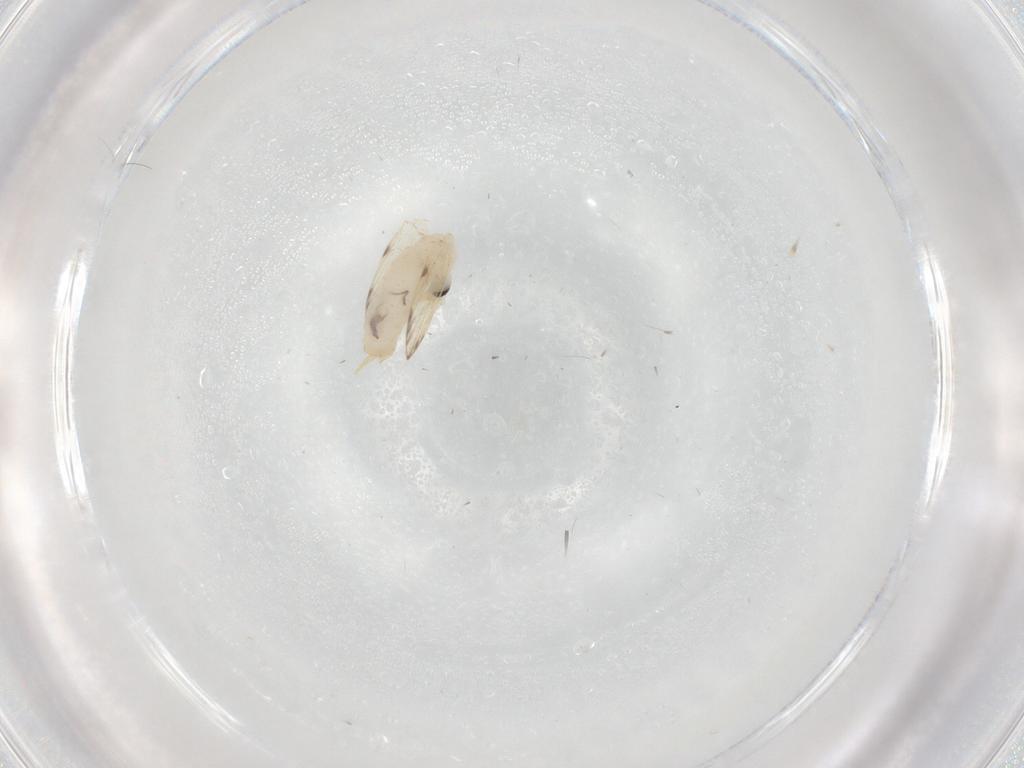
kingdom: Animalia
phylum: Arthropoda
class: Insecta
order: Diptera
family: Psychodidae
